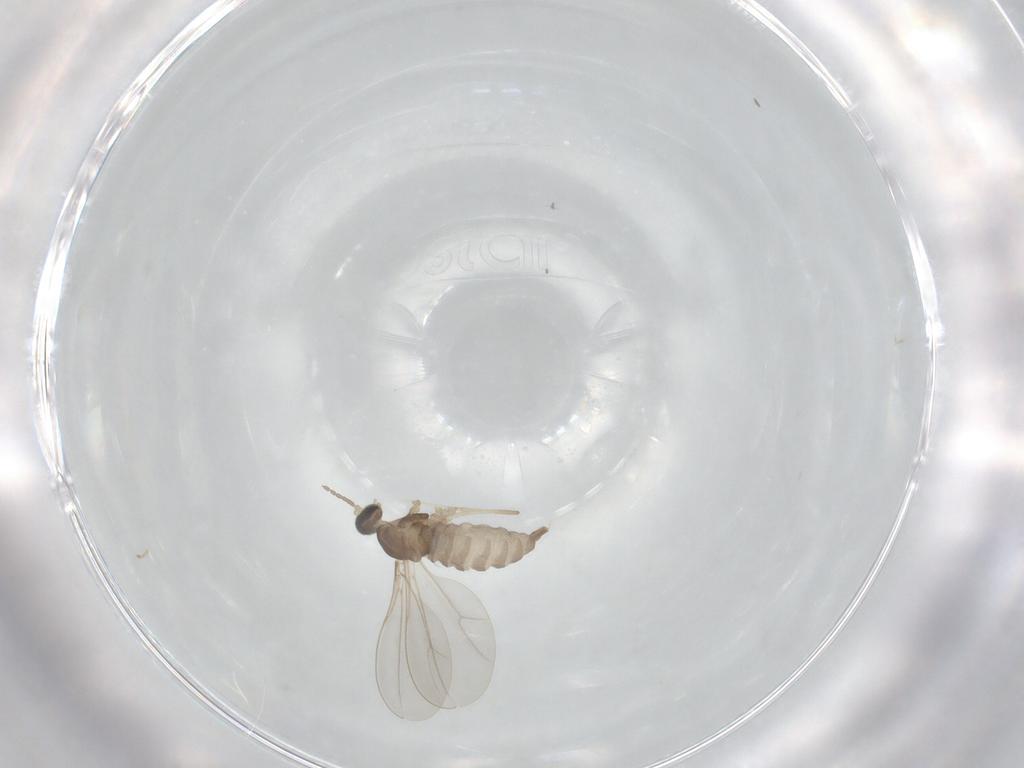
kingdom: Animalia
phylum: Arthropoda
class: Insecta
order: Diptera
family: Cecidomyiidae
